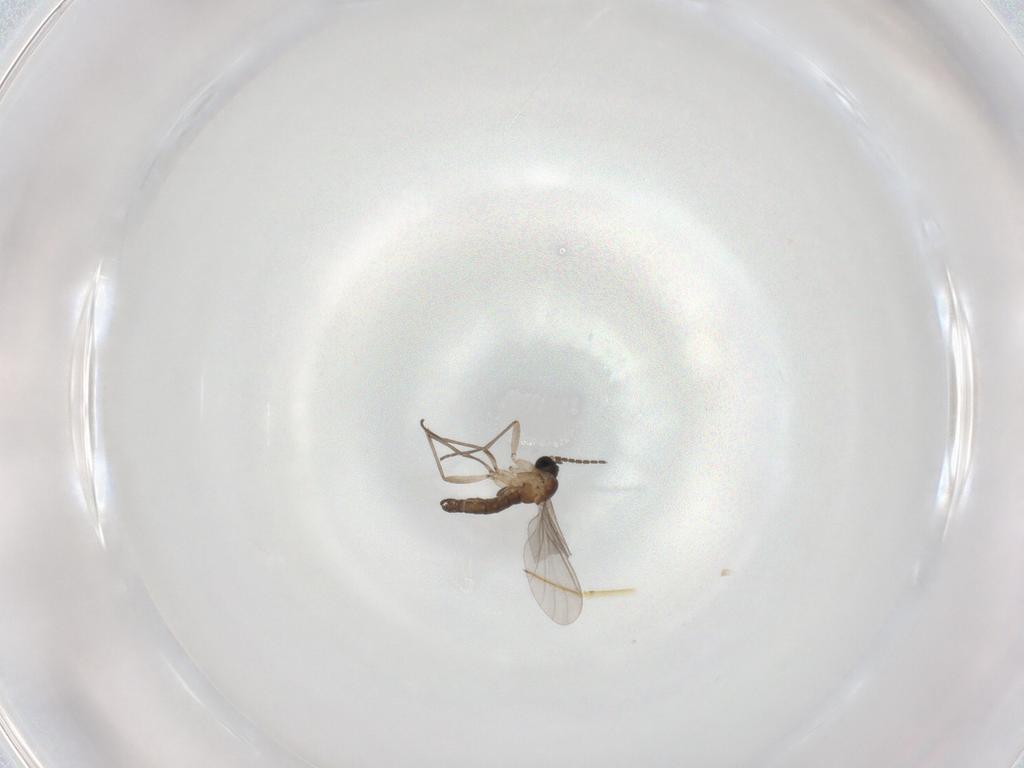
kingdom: Animalia
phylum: Arthropoda
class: Insecta
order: Diptera
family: Sciaridae
